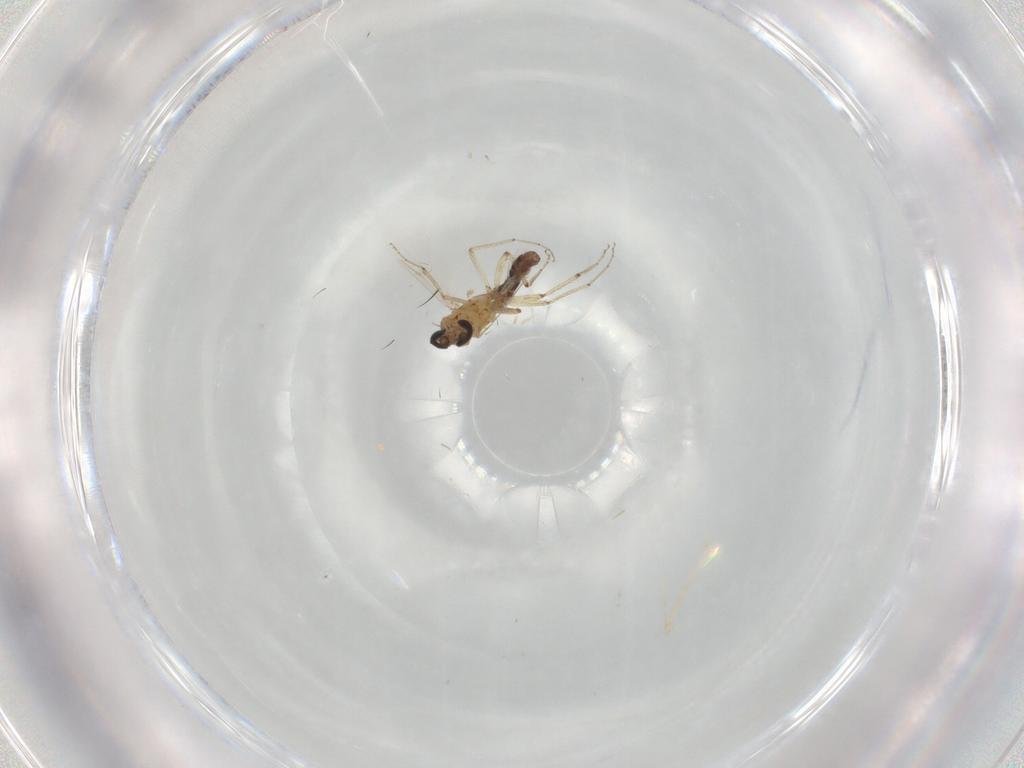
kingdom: Animalia
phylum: Arthropoda
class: Insecta
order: Diptera
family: Ceratopogonidae
